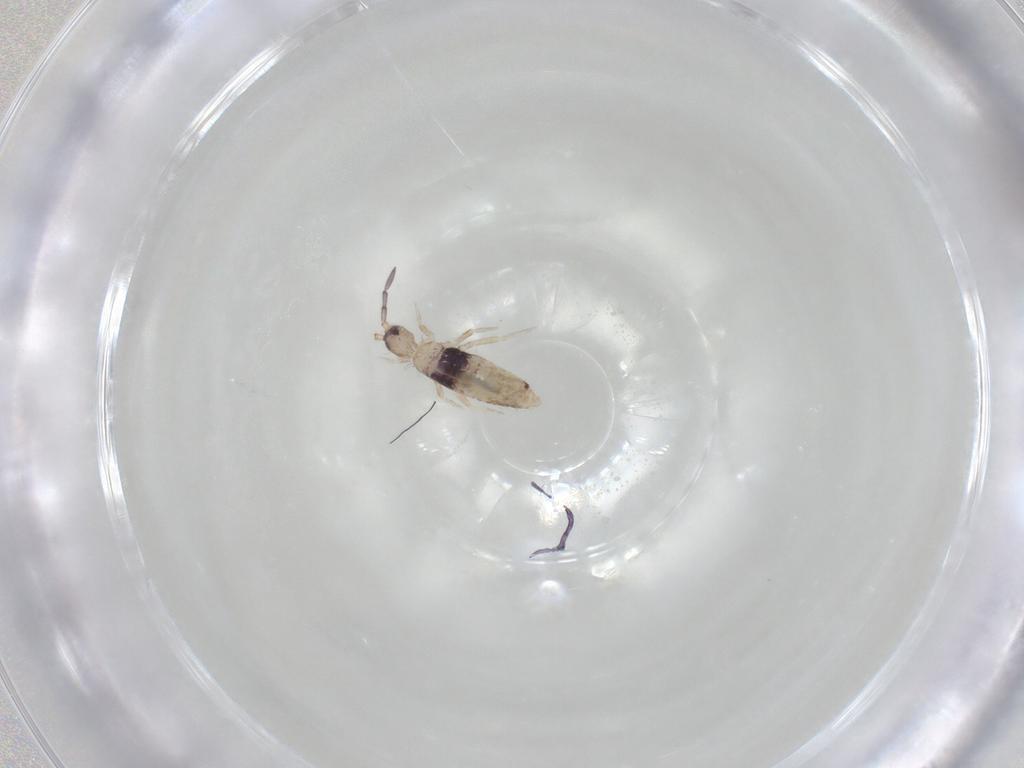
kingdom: Animalia
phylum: Arthropoda
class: Collembola
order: Entomobryomorpha
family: Entomobryidae
